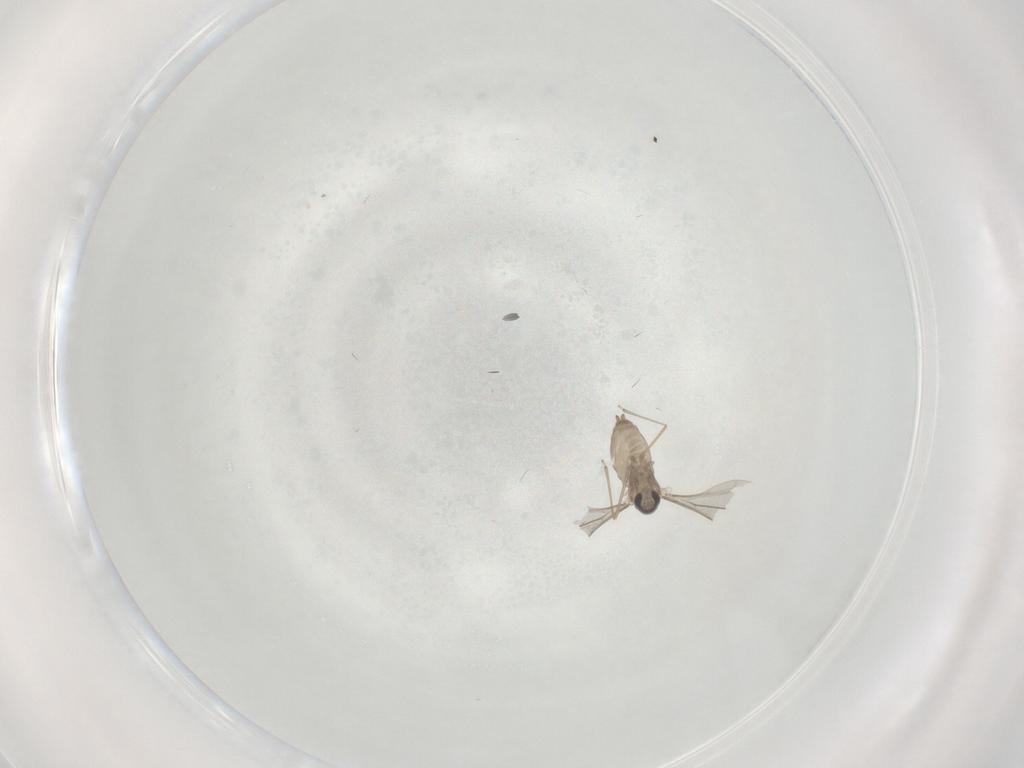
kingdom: Animalia
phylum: Arthropoda
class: Insecta
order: Diptera
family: Cecidomyiidae
